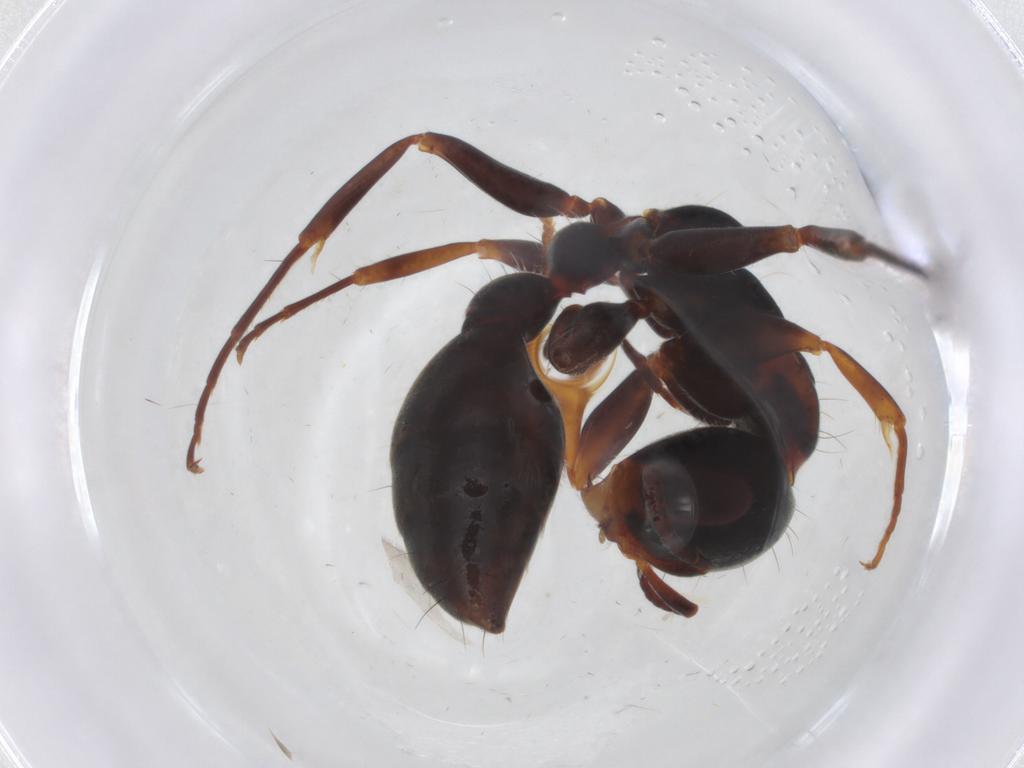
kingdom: Animalia
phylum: Arthropoda
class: Insecta
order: Hymenoptera
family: Formicidae
